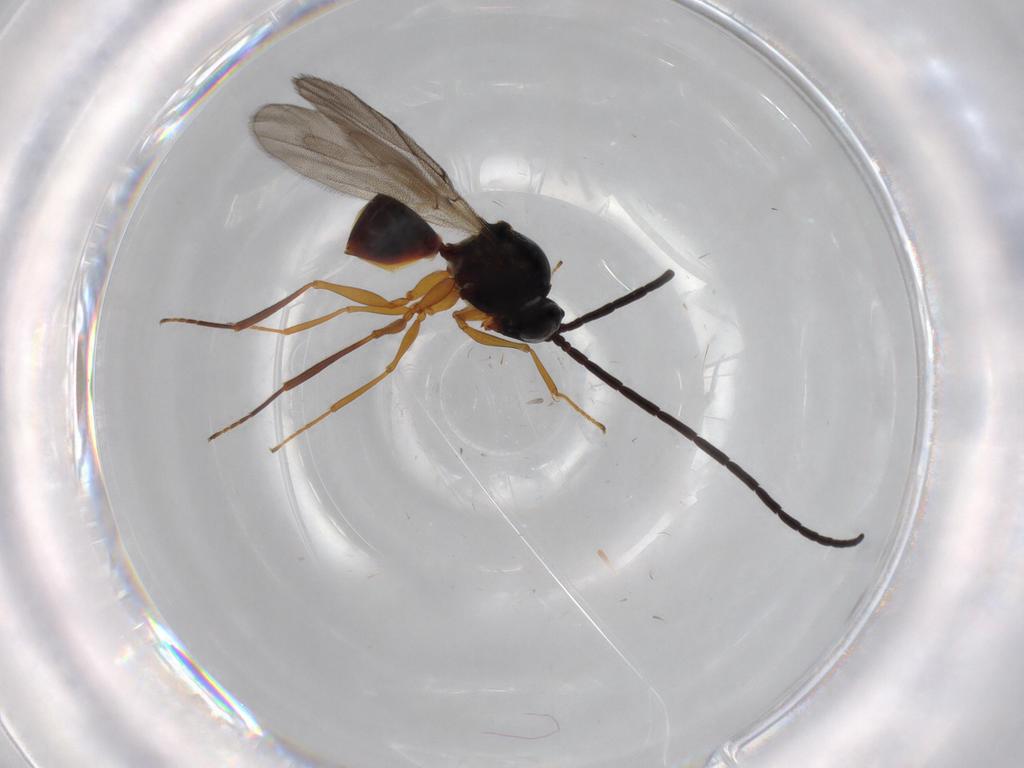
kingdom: Animalia
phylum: Arthropoda
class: Insecta
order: Hymenoptera
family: Figitidae
